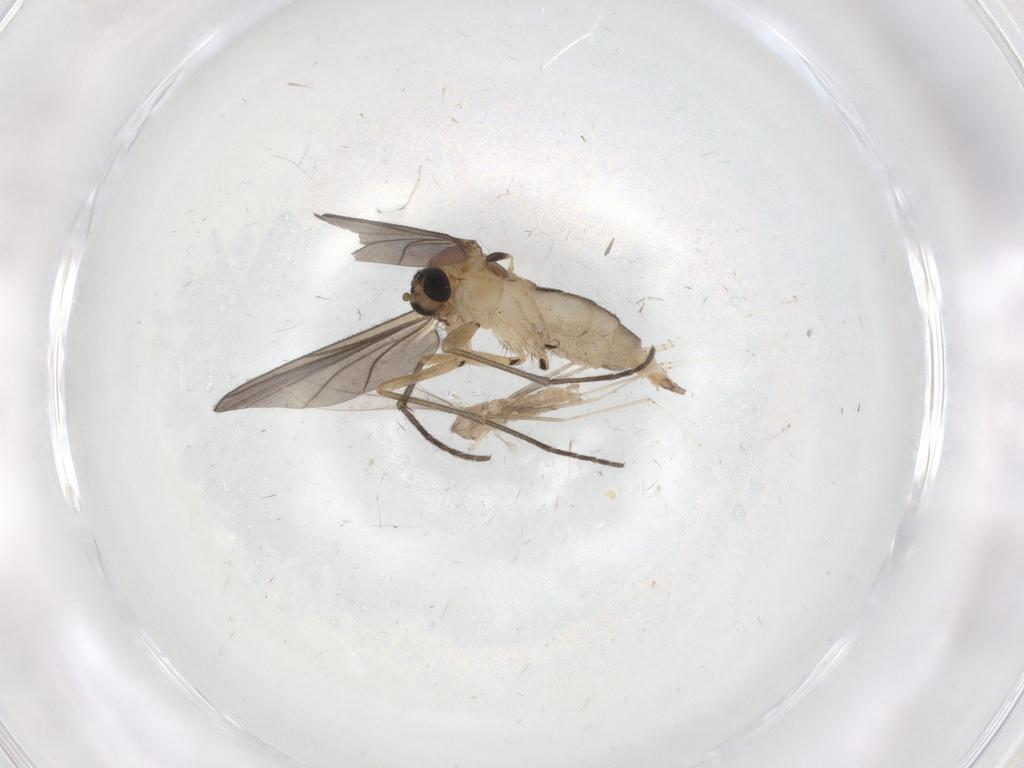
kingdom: Animalia
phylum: Arthropoda
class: Insecta
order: Diptera
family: Sciaridae
